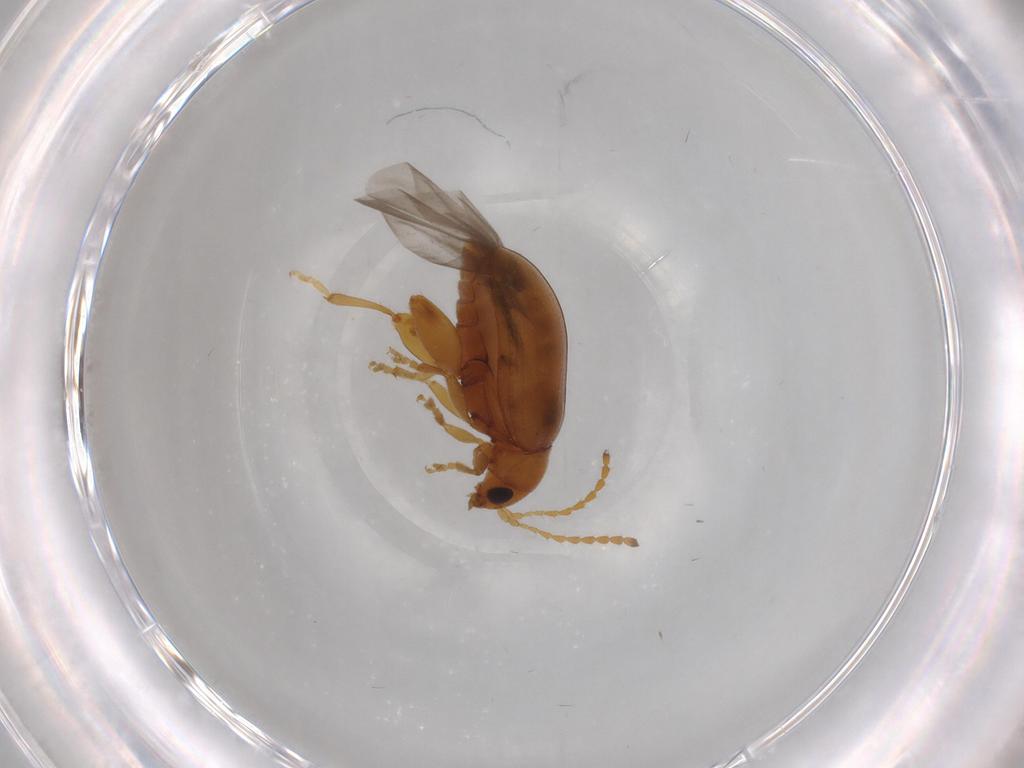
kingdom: Animalia
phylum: Arthropoda
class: Insecta
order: Coleoptera
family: Chrysomelidae
